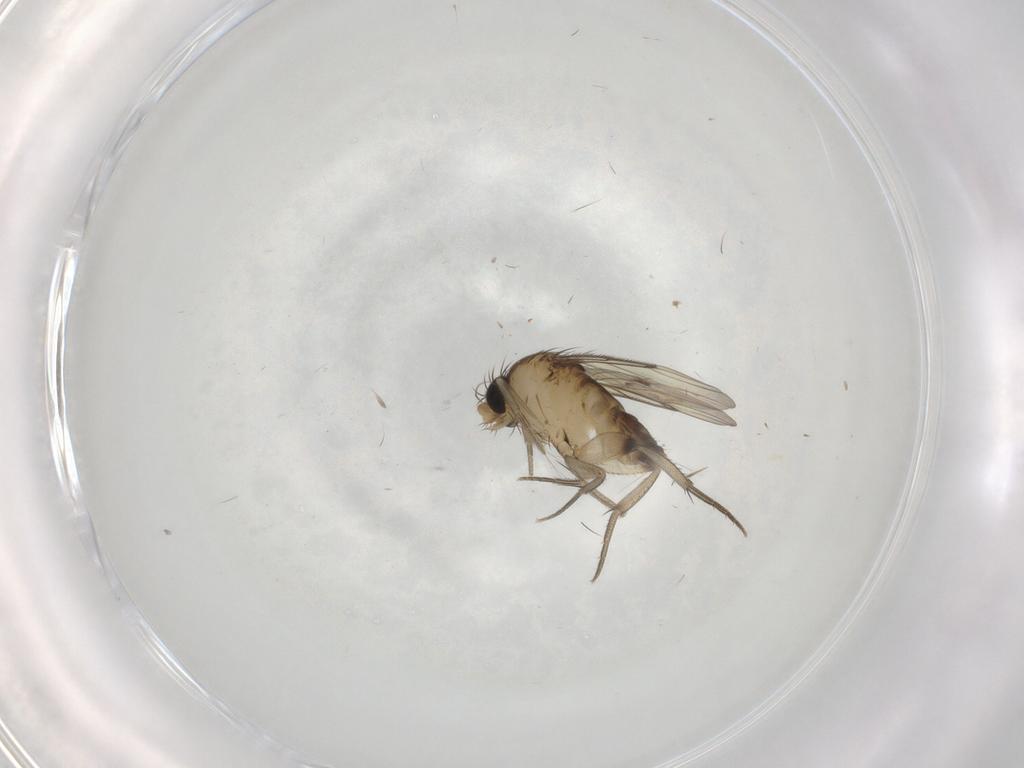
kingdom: Animalia
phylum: Arthropoda
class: Insecta
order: Diptera
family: Phoridae
